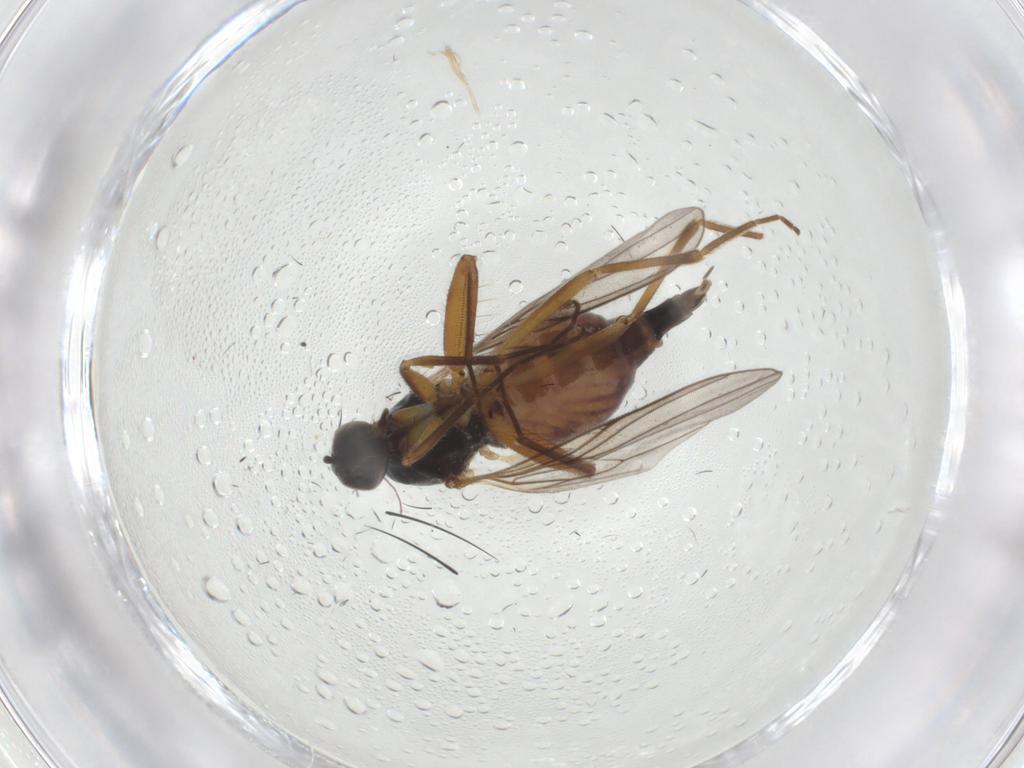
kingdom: Animalia
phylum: Arthropoda
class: Insecta
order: Diptera
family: Hybotidae
